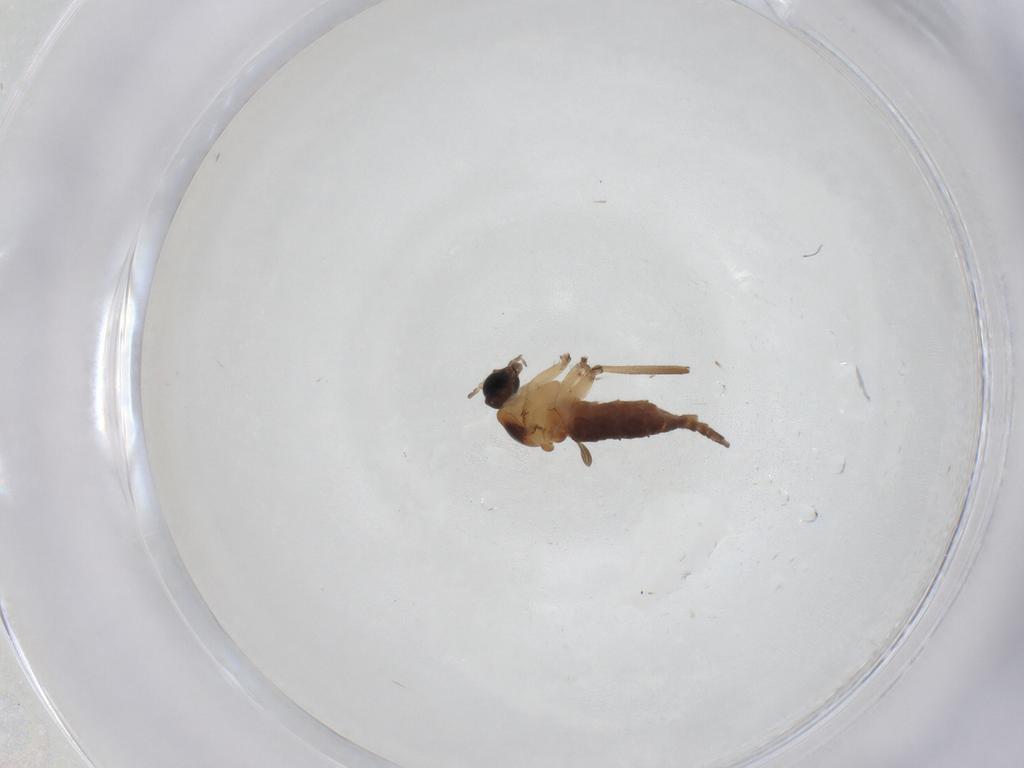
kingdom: Animalia
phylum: Arthropoda
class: Insecta
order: Diptera
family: Sciaridae
